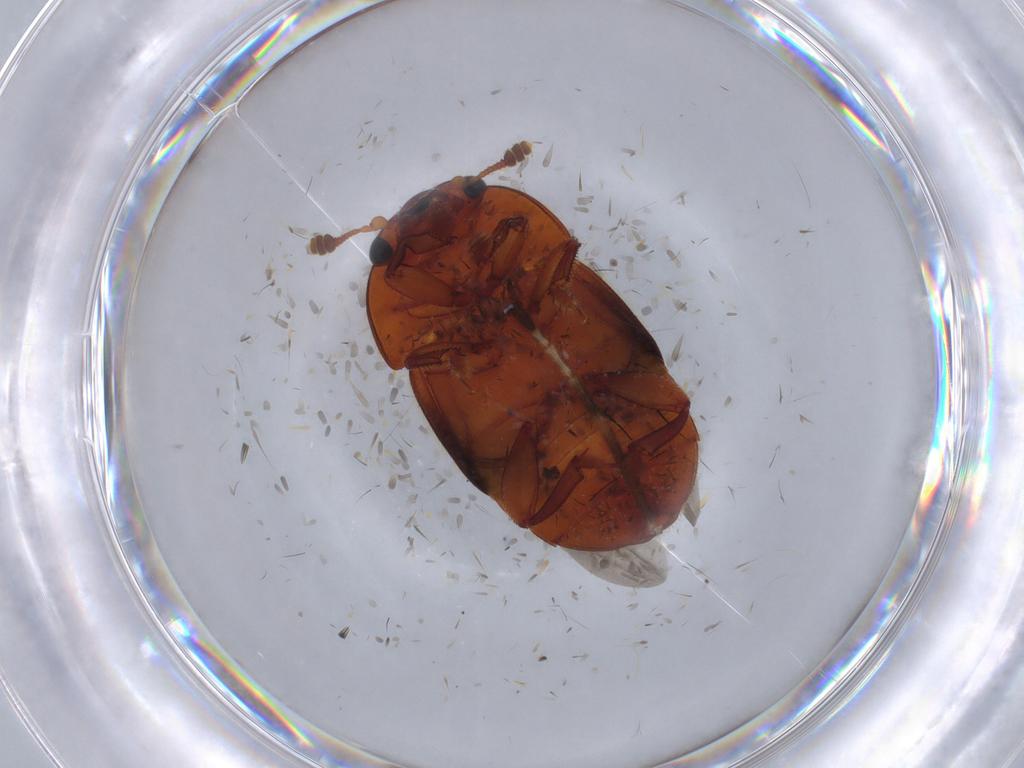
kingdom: Animalia
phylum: Arthropoda
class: Insecta
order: Coleoptera
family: Nitidulidae
